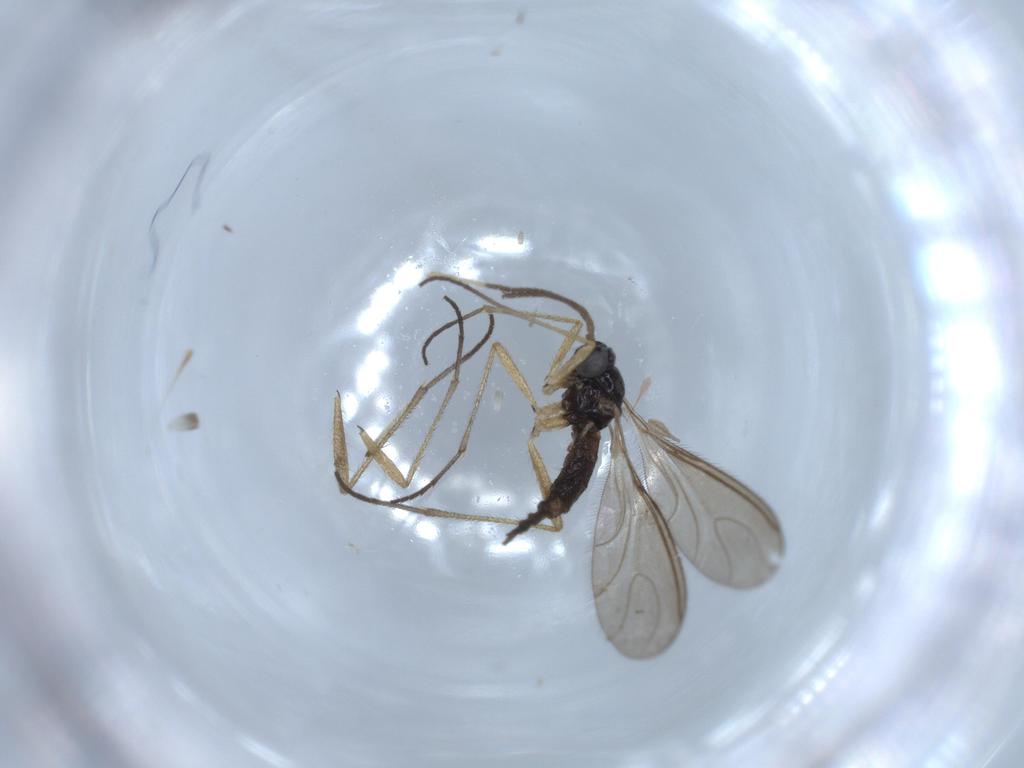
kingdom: Animalia
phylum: Arthropoda
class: Insecta
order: Diptera
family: Sciaridae
